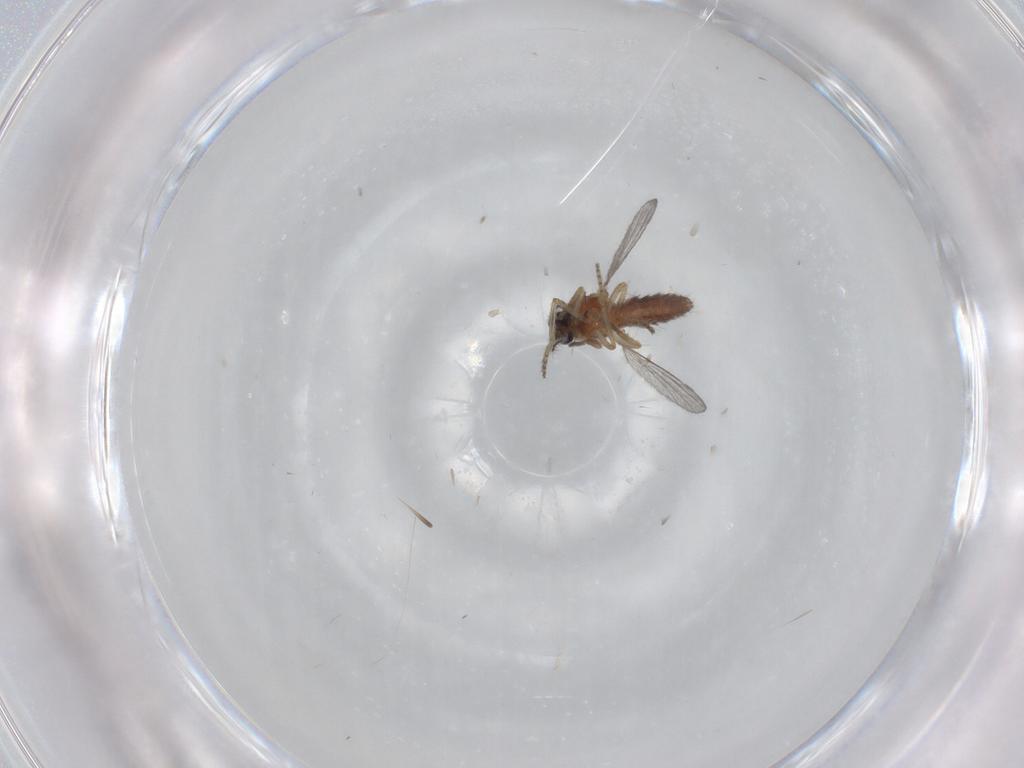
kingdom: Animalia
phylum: Arthropoda
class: Insecta
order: Diptera
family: Ceratopogonidae
